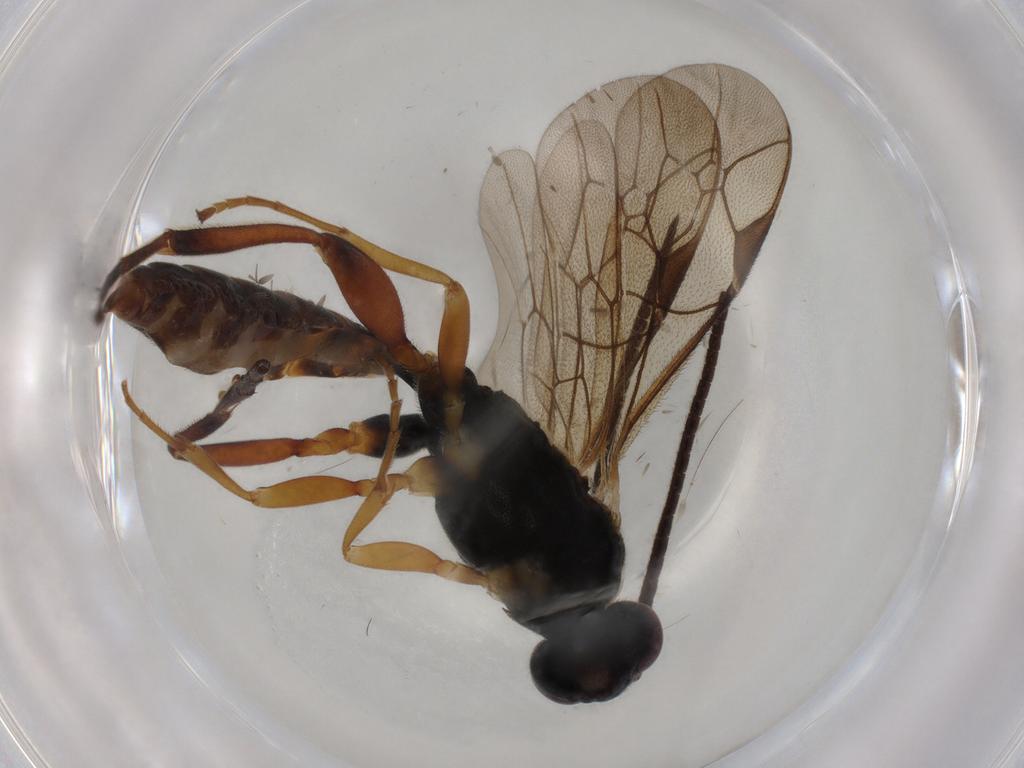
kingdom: Animalia
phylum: Arthropoda
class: Insecta
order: Hymenoptera
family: Ichneumonidae
